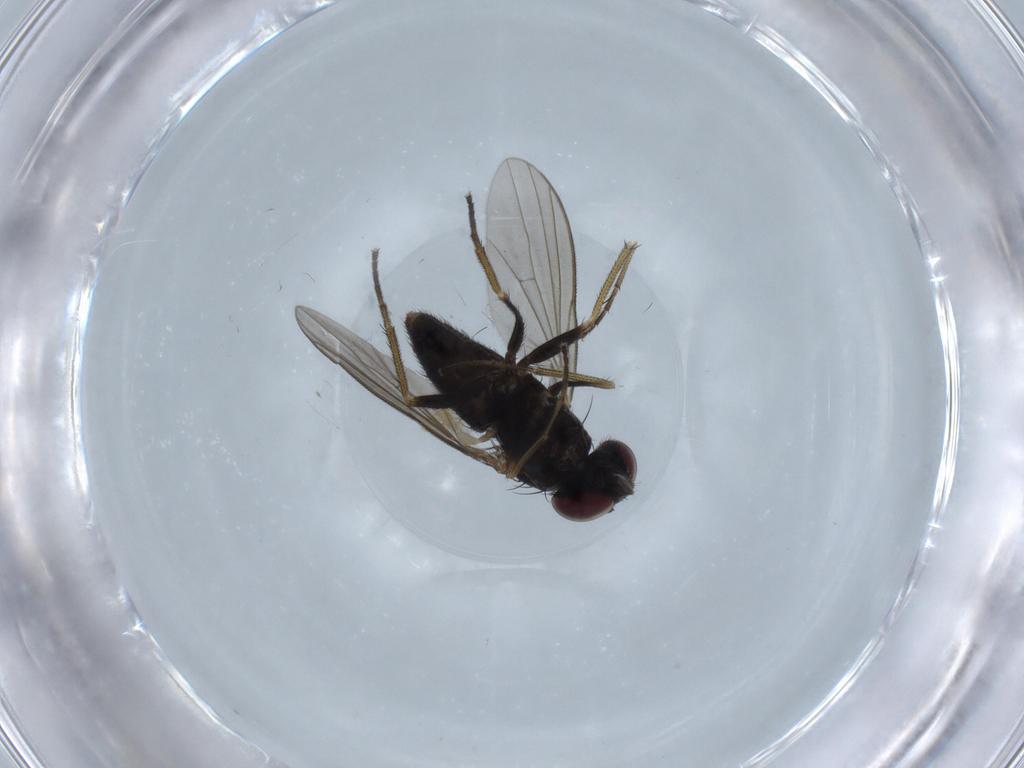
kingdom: Animalia
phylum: Arthropoda
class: Insecta
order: Diptera
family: Dolichopodidae
